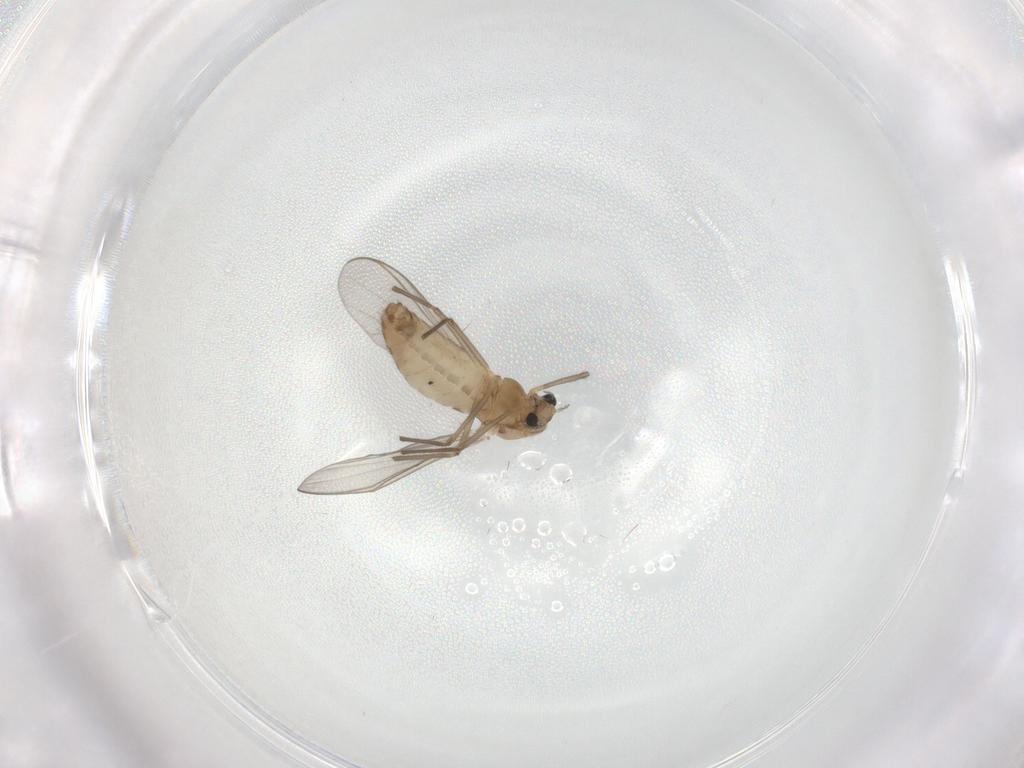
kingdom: Animalia
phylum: Arthropoda
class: Insecta
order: Diptera
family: Chironomidae
